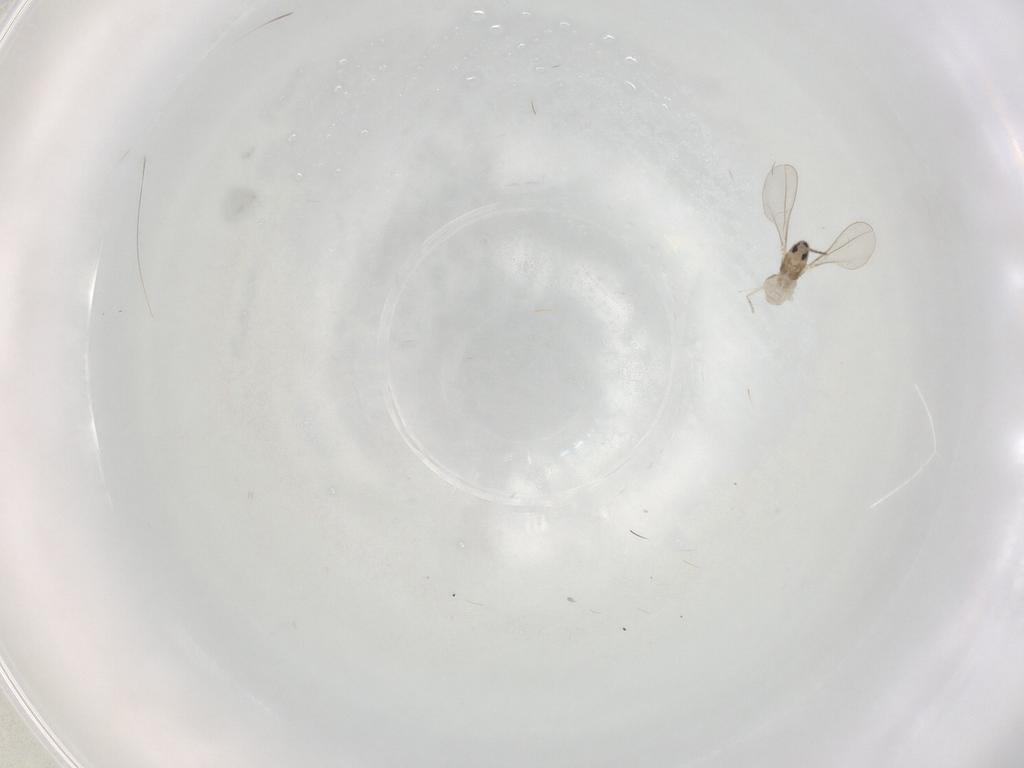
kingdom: Animalia
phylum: Arthropoda
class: Insecta
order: Diptera
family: Cecidomyiidae
